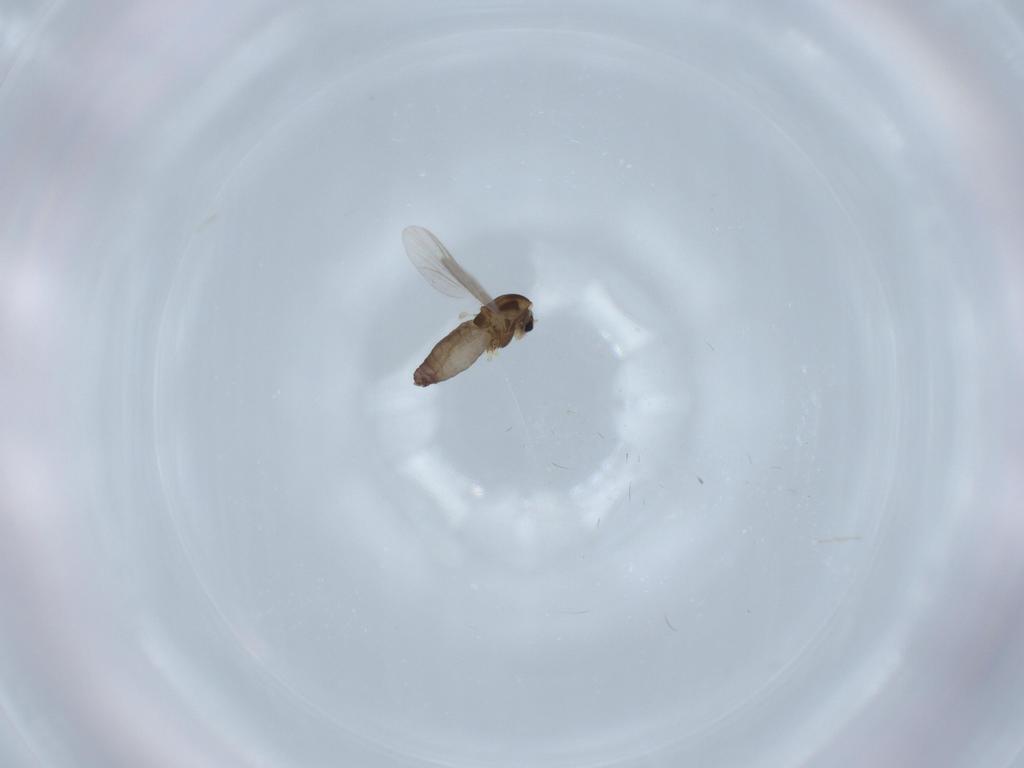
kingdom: Animalia
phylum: Arthropoda
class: Insecta
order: Diptera
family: Chironomidae
